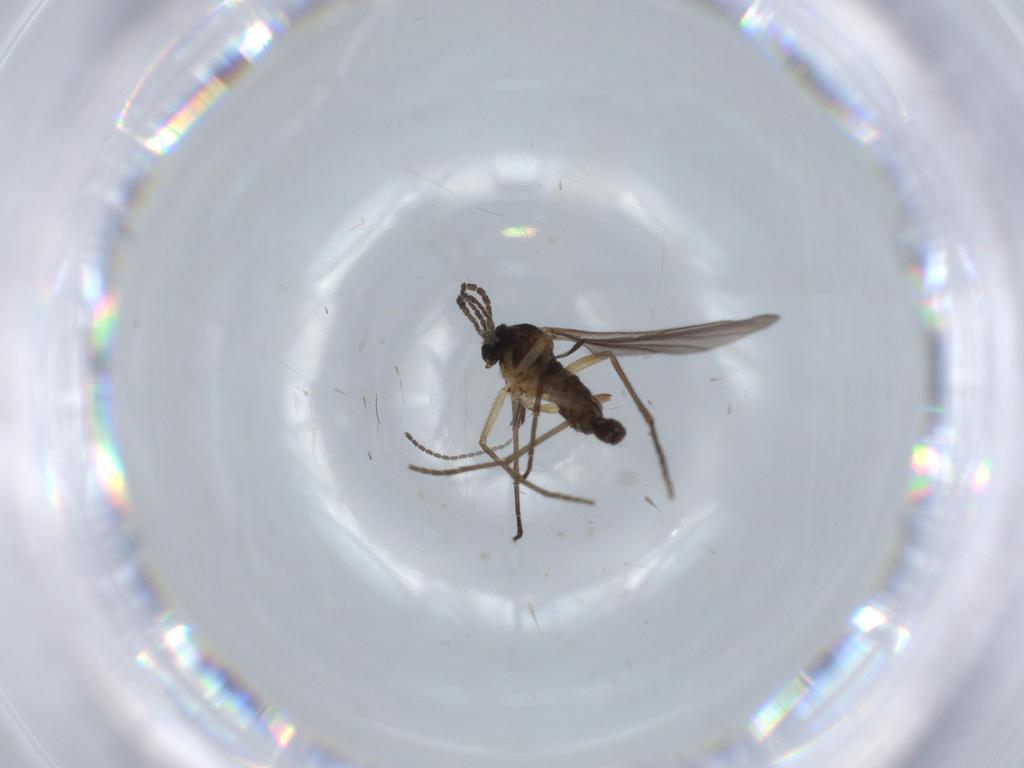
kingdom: Animalia
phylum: Arthropoda
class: Insecta
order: Diptera
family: Sciaridae
